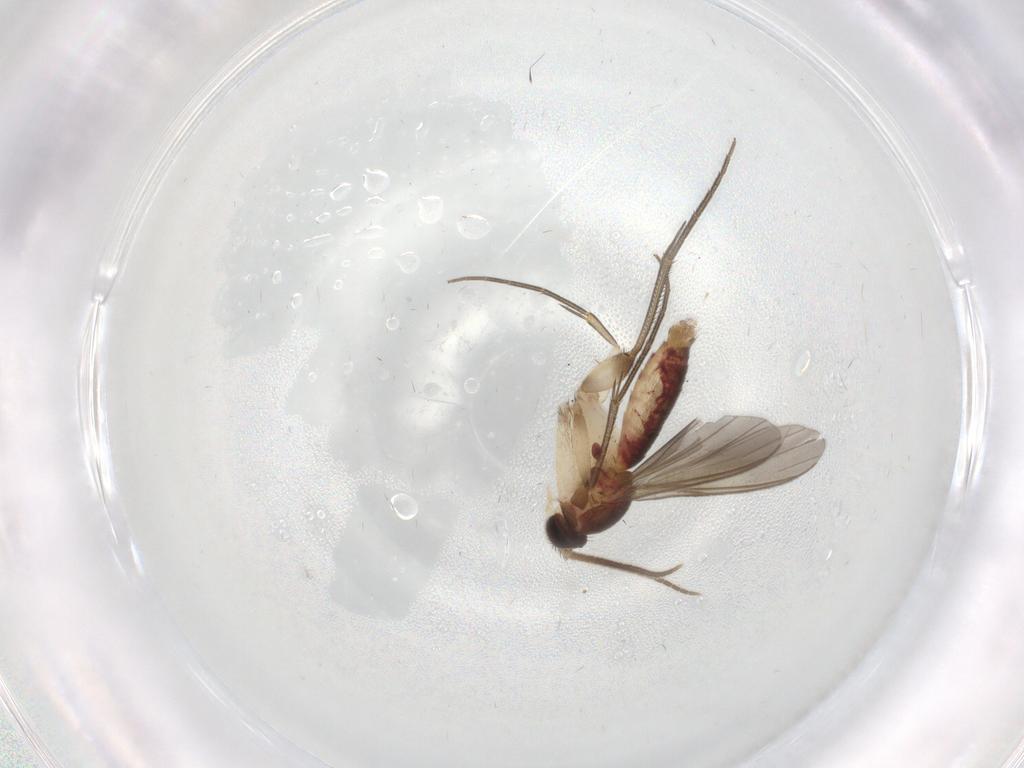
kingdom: Animalia
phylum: Arthropoda
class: Insecta
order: Diptera
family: Mycetophilidae
